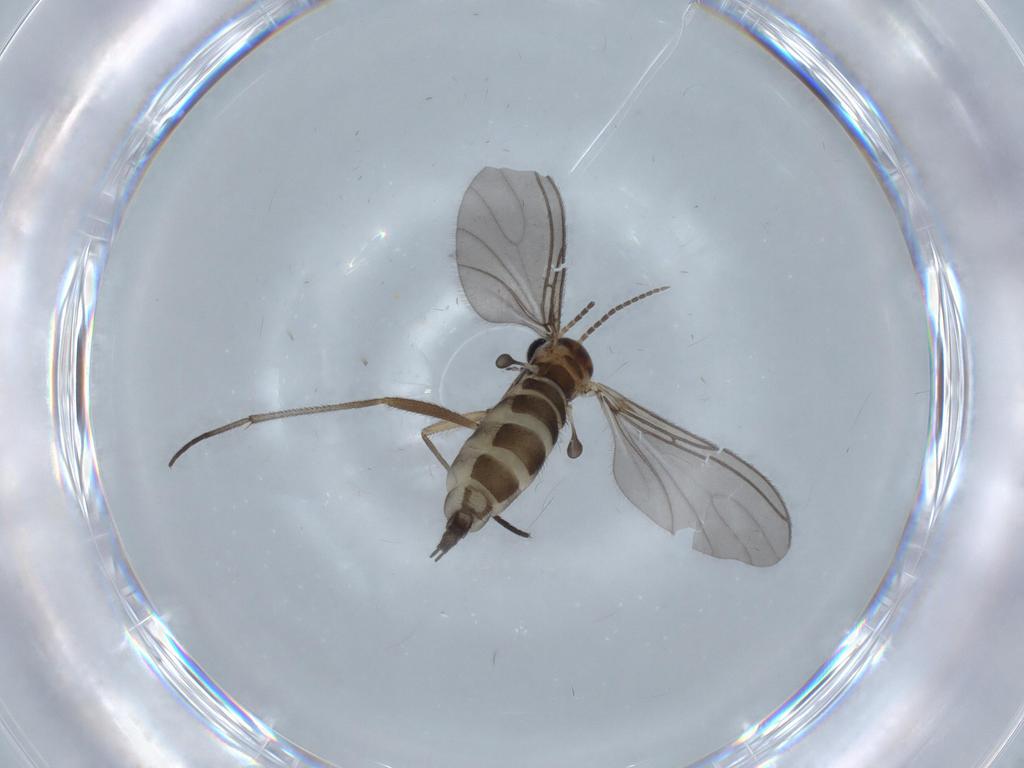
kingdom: Animalia
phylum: Arthropoda
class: Insecta
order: Diptera
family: Sciaridae
